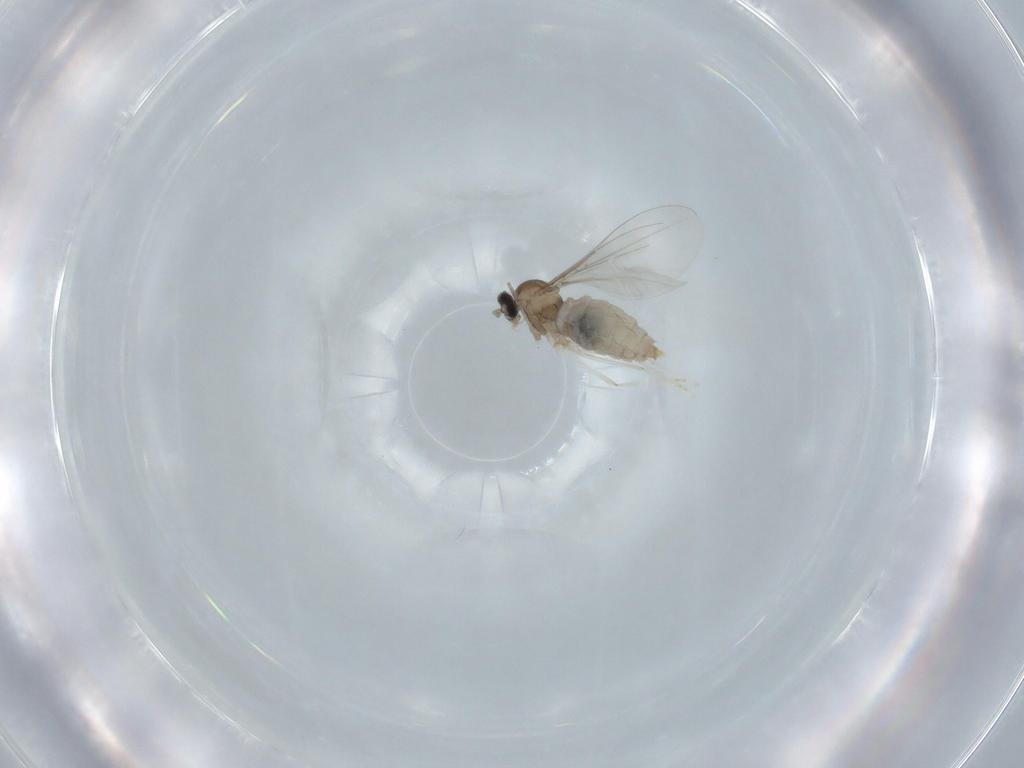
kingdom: Animalia
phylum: Arthropoda
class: Insecta
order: Diptera
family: Cecidomyiidae
